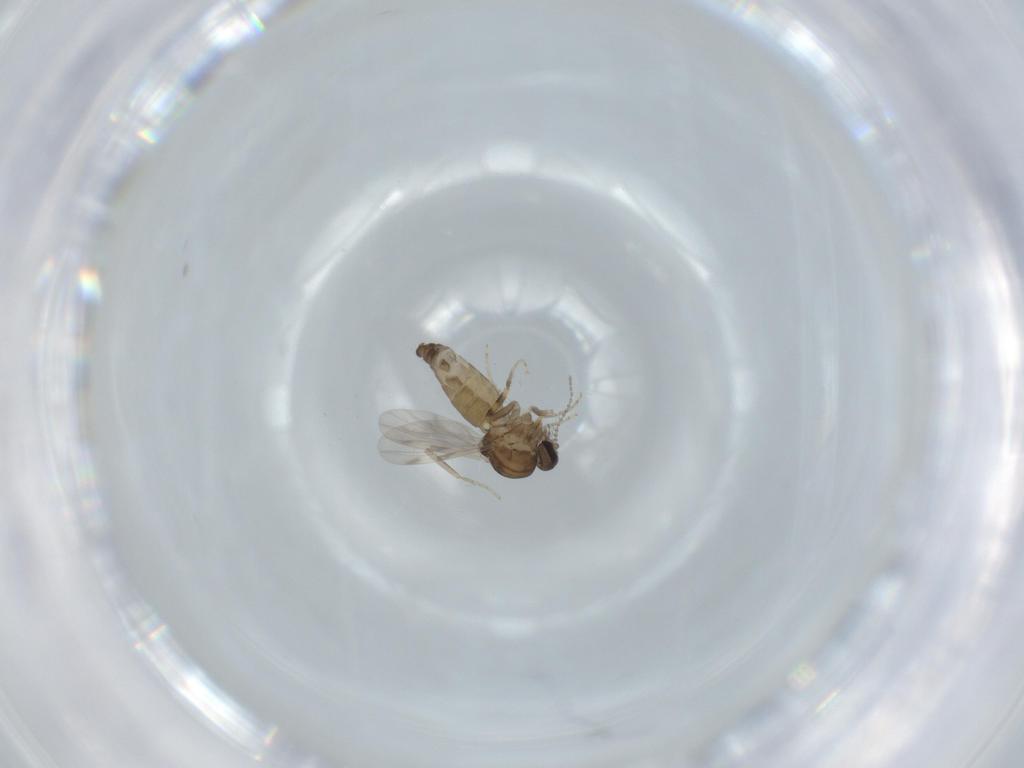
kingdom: Animalia
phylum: Arthropoda
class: Insecta
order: Diptera
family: Ceratopogonidae
